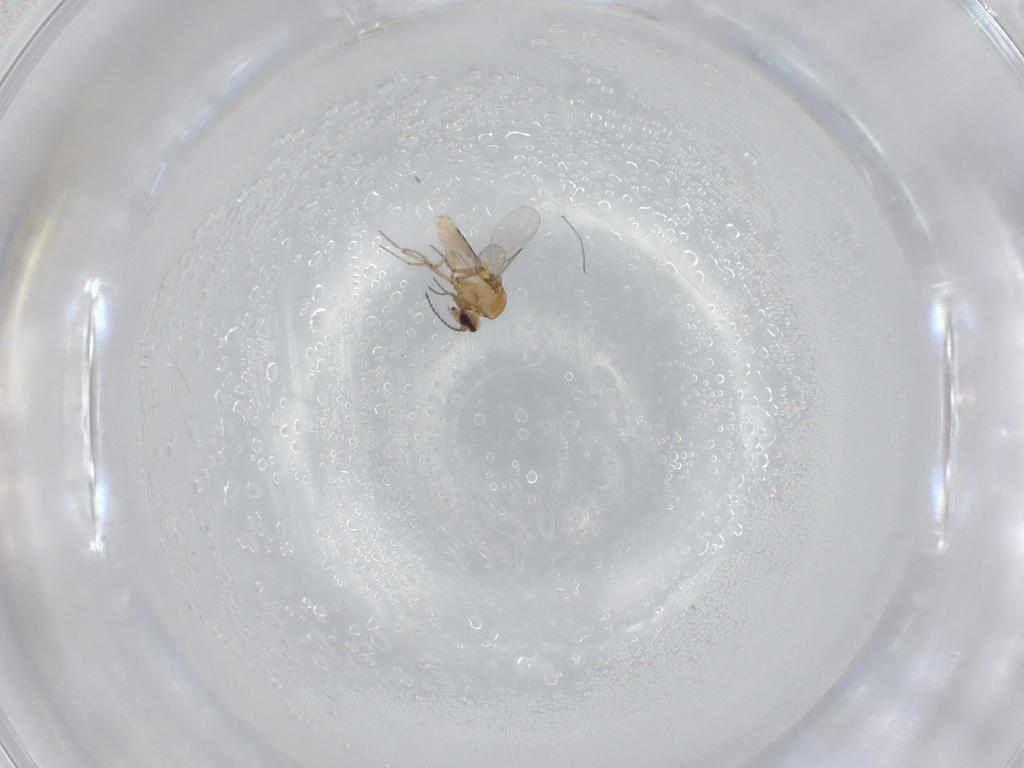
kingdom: Animalia
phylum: Arthropoda
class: Insecta
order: Diptera
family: Ceratopogonidae
